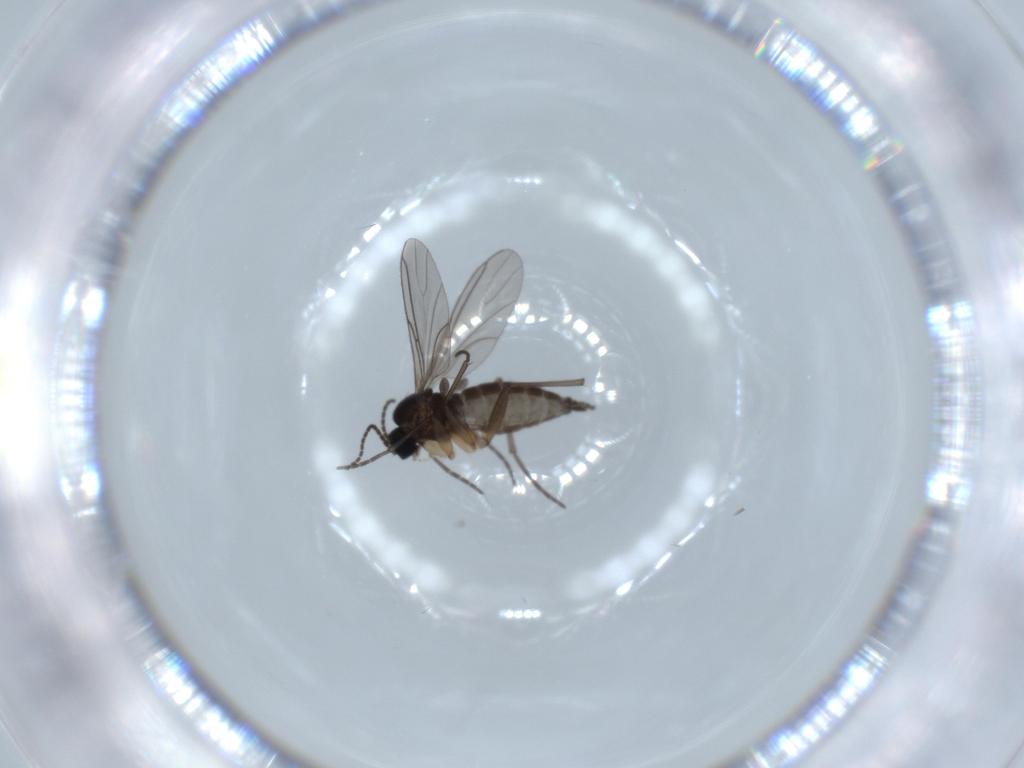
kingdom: Animalia
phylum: Arthropoda
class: Insecta
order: Diptera
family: Sciaridae
